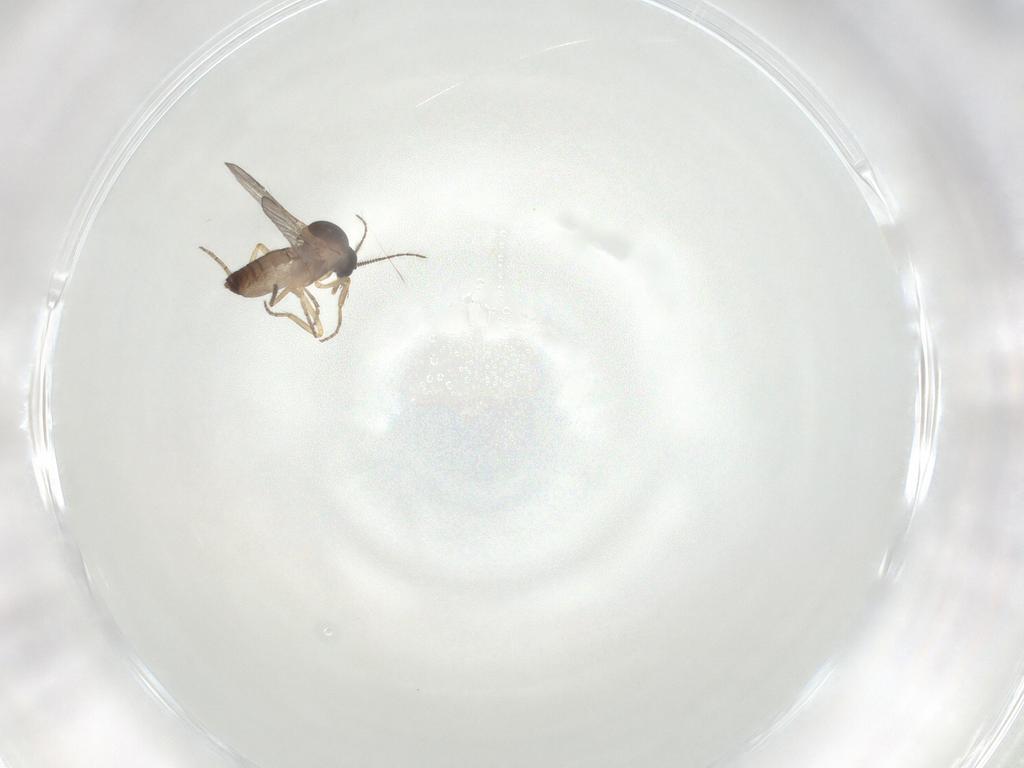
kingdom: Animalia
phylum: Arthropoda
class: Insecta
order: Diptera
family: Ceratopogonidae
